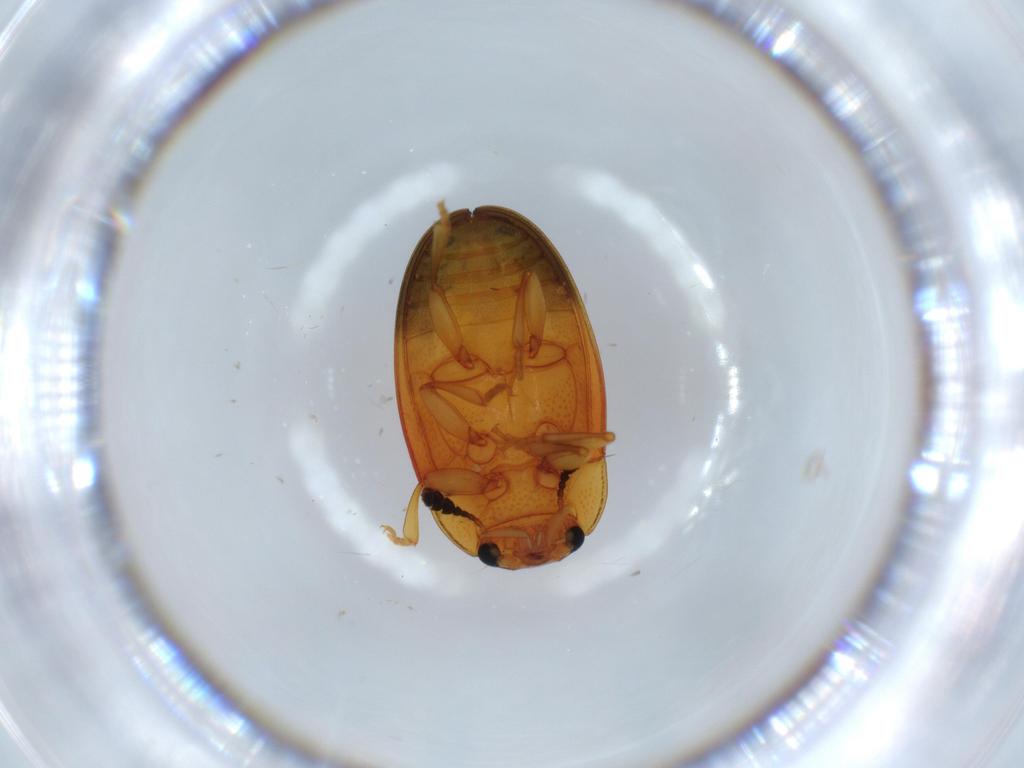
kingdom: Animalia
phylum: Arthropoda
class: Insecta
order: Coleoptera
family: Erotylidae
